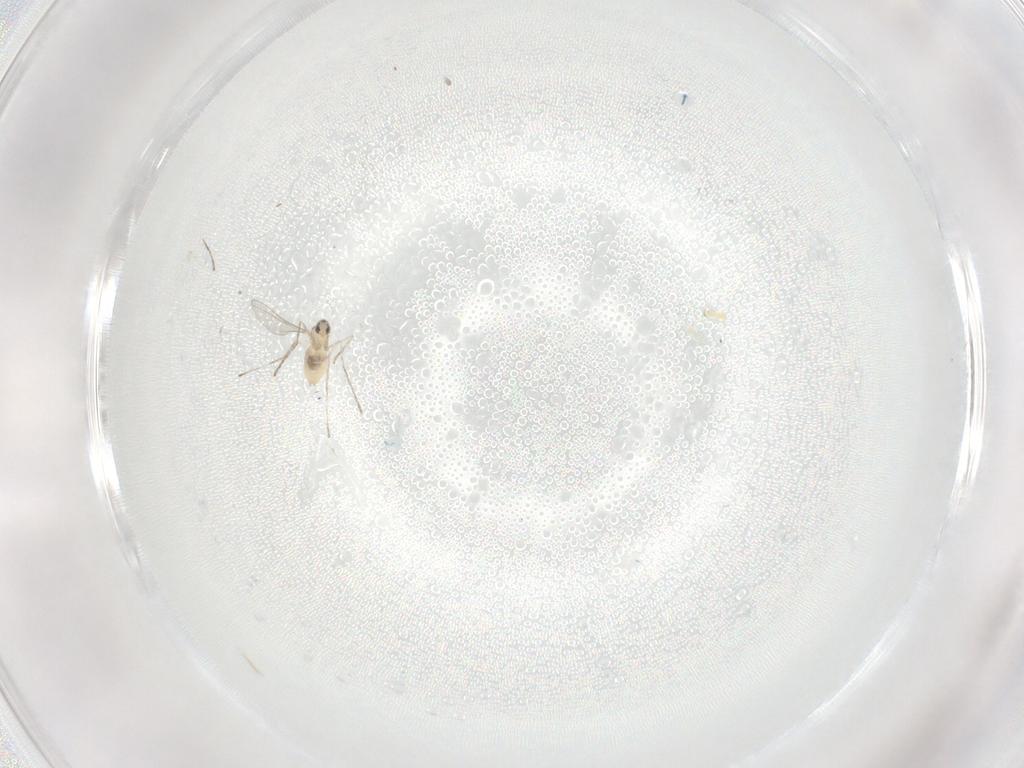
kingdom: Animalia
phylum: Arthropoda
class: Insecta
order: Diptera
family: Cecidomyiidae
